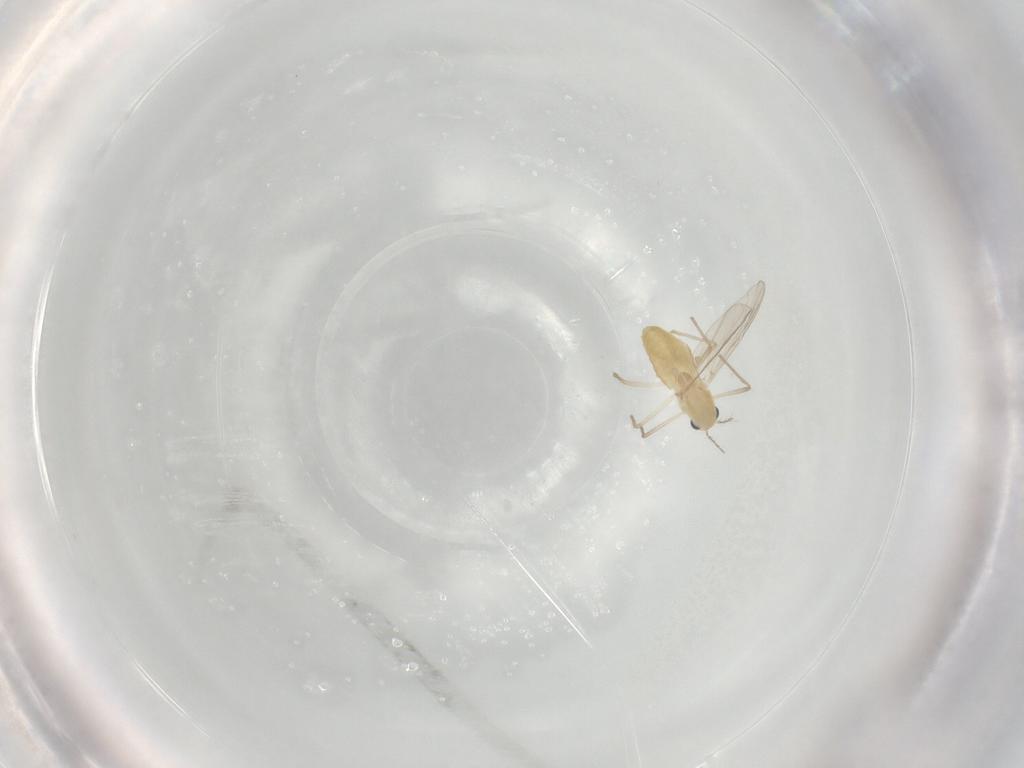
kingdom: Animalia
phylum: Arthropoda
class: Insecta
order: Diptera
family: Chironomidae
